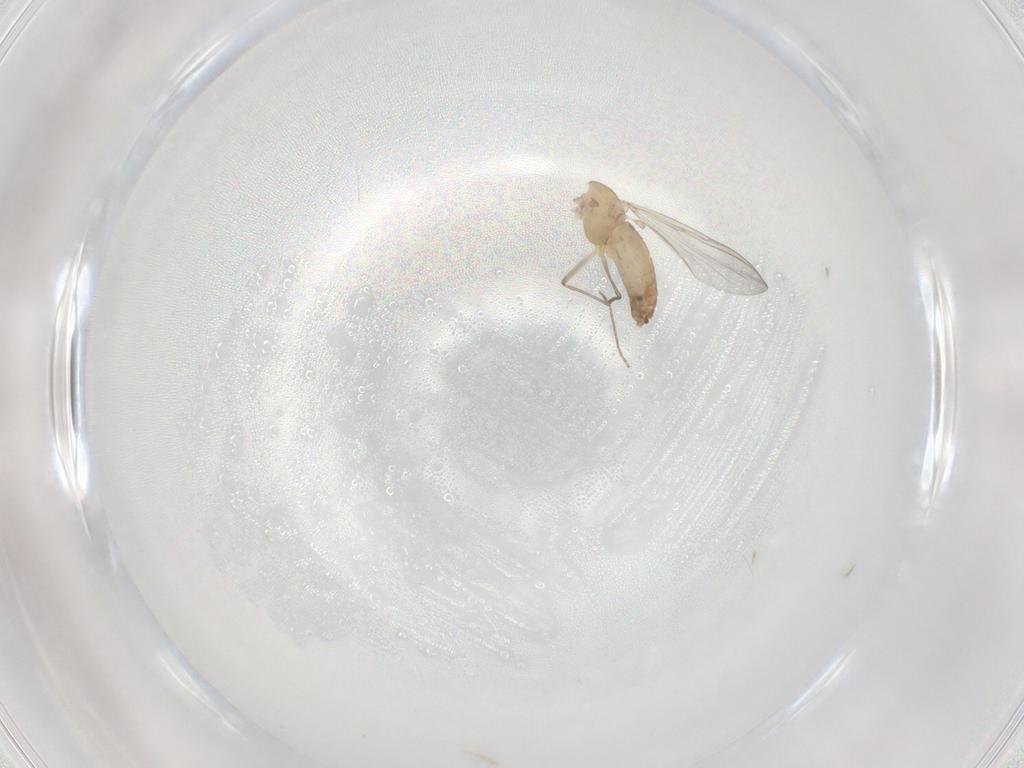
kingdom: Animalia
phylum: Arthropoda
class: Insecta
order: Diptera
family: Chironomidae
